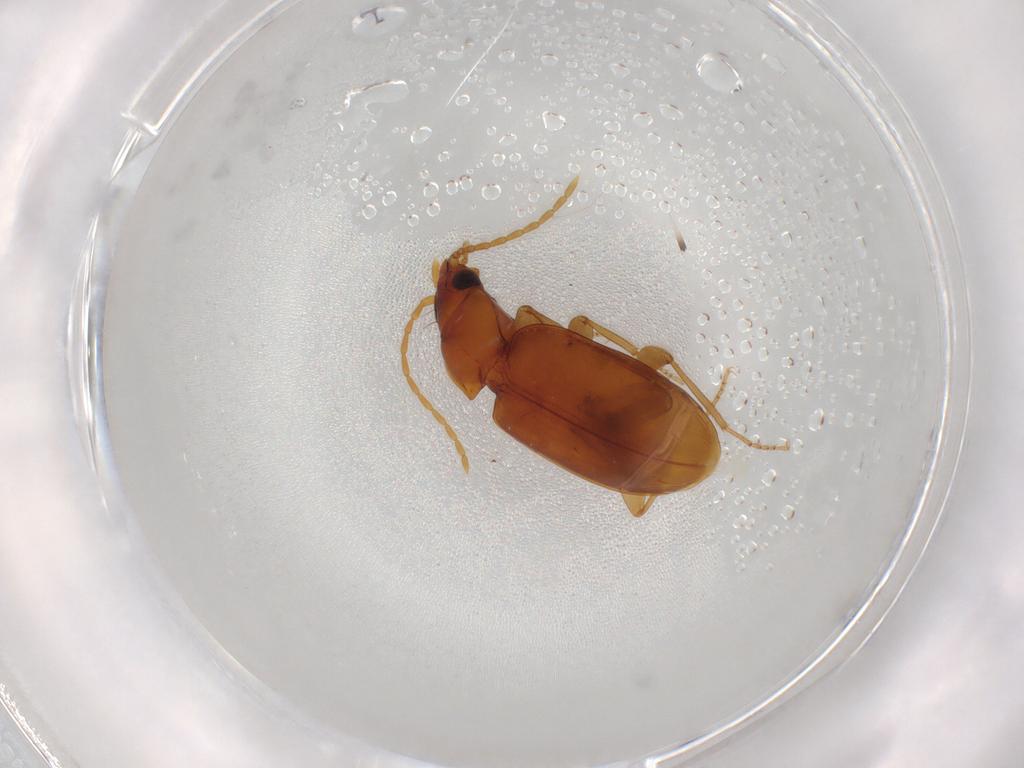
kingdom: Animalia
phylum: Arthropoda
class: Insecta
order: Coleoptera
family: Carabidae
